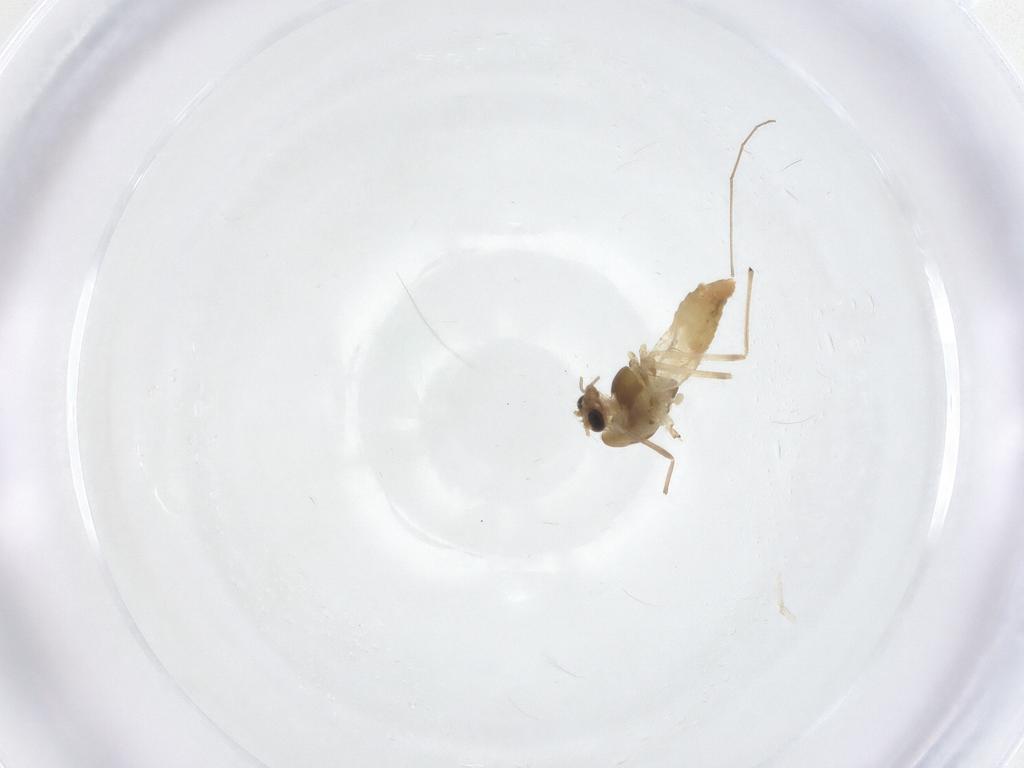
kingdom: Animalia
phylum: Arthropoda
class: Insecta
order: Diptera
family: Chironomidae
